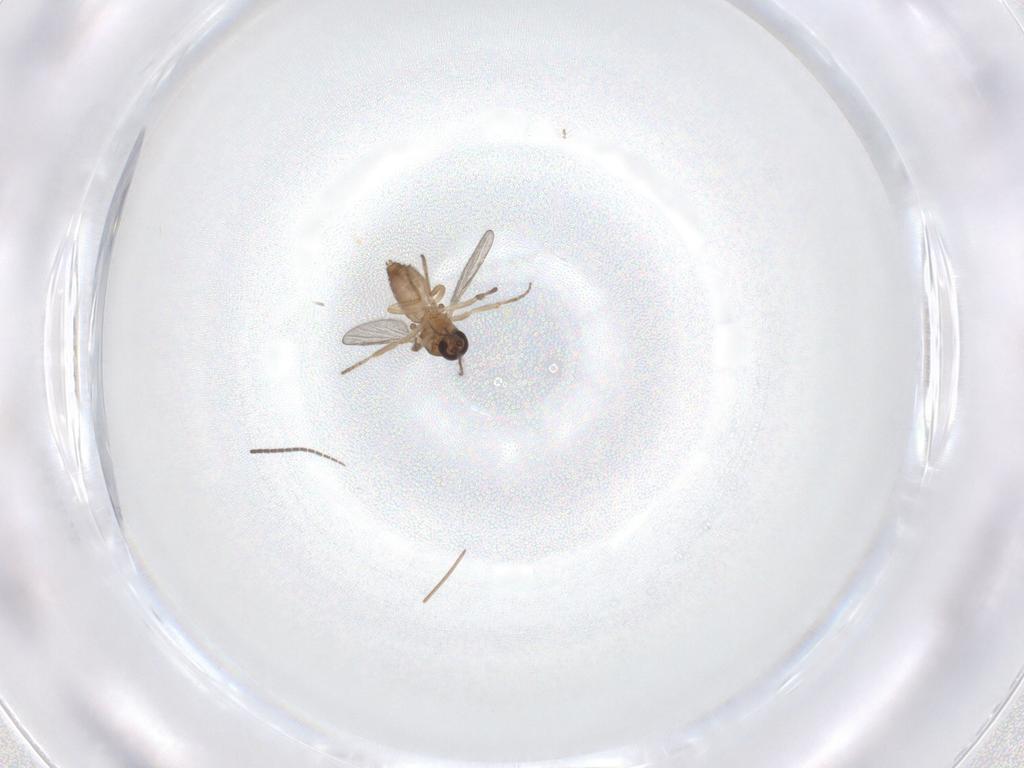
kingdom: Animalia
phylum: Arthropoda
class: Insecta
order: Diptera
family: Ceratopogonidae
